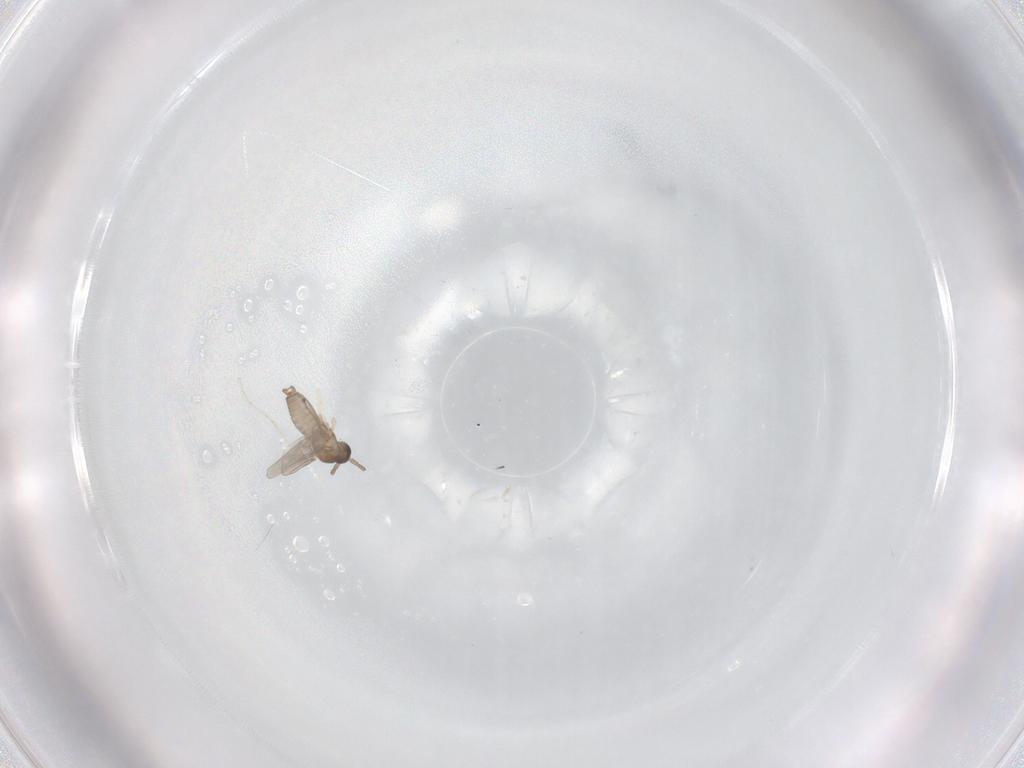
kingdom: Animalia
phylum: Arthropoda
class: Insecta
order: Diptera
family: Cecidomyiidae
